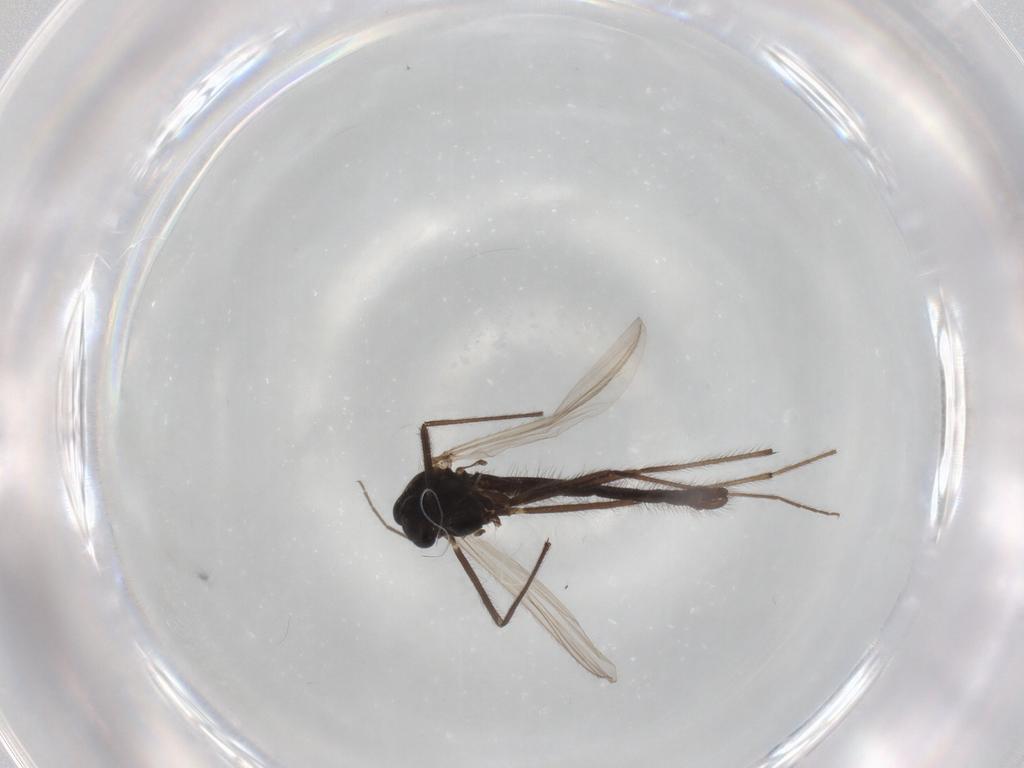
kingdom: Animalia
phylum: Arthropoda
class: Insecta
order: Diptera
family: Chironomidae
